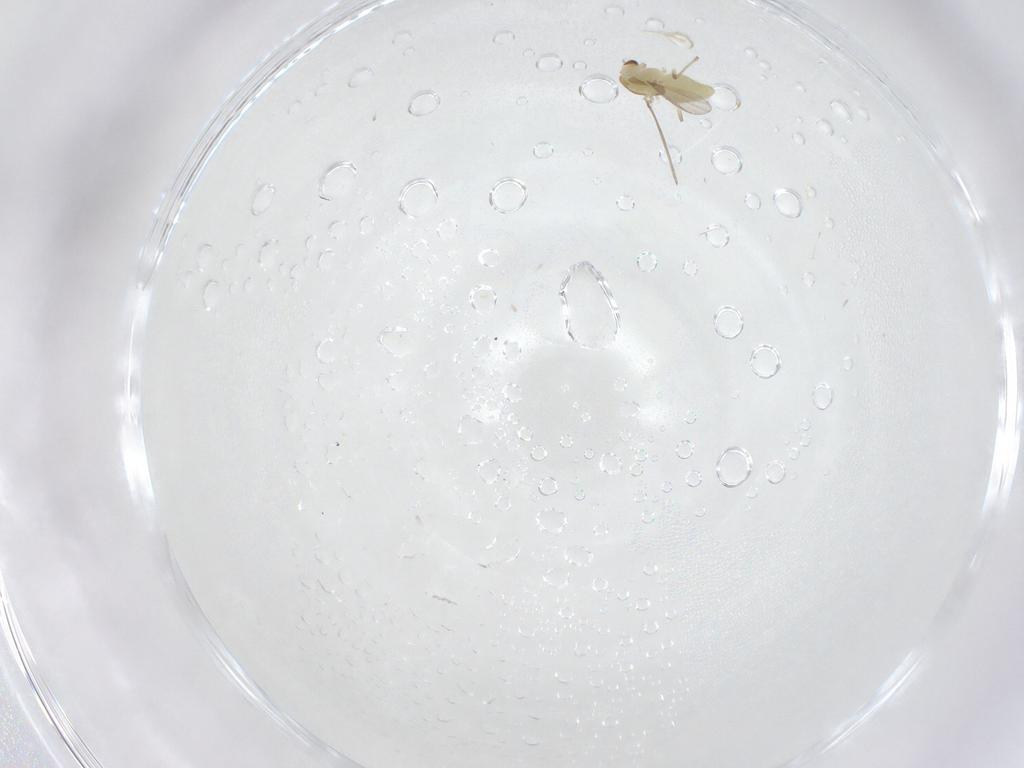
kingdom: Animalia
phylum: Arthropoda
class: Insecta
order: Diptera
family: Chironomidae
